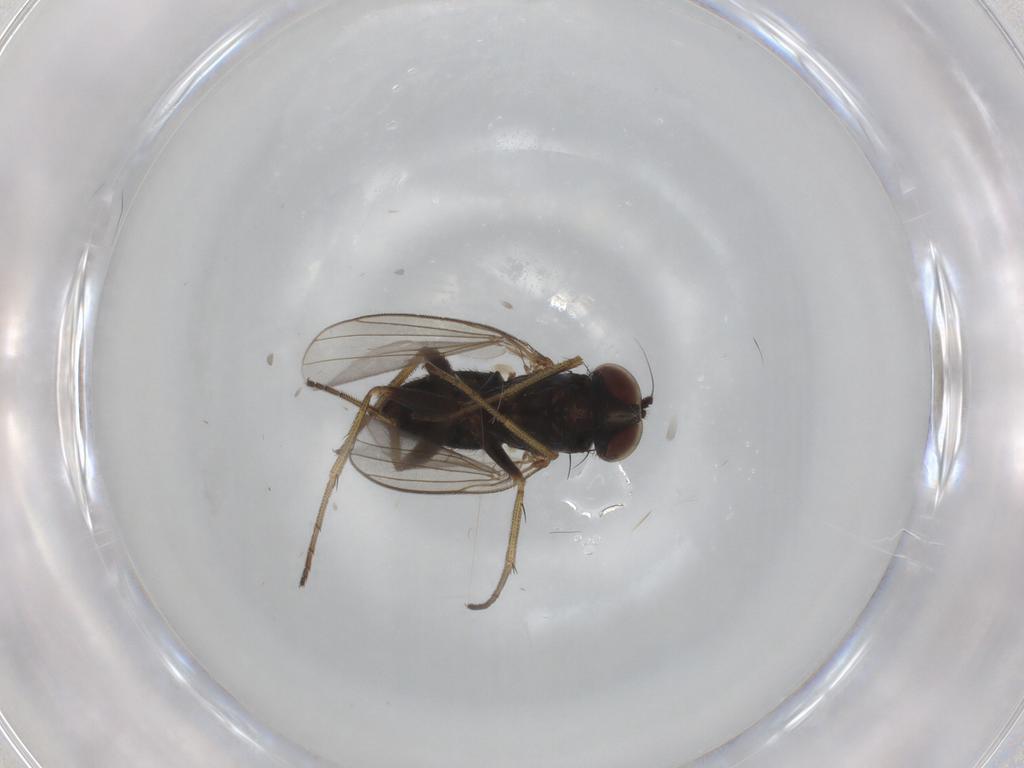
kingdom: Animalia
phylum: Arthropoda
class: Insecta
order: Diptera
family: Dolichopodidae
